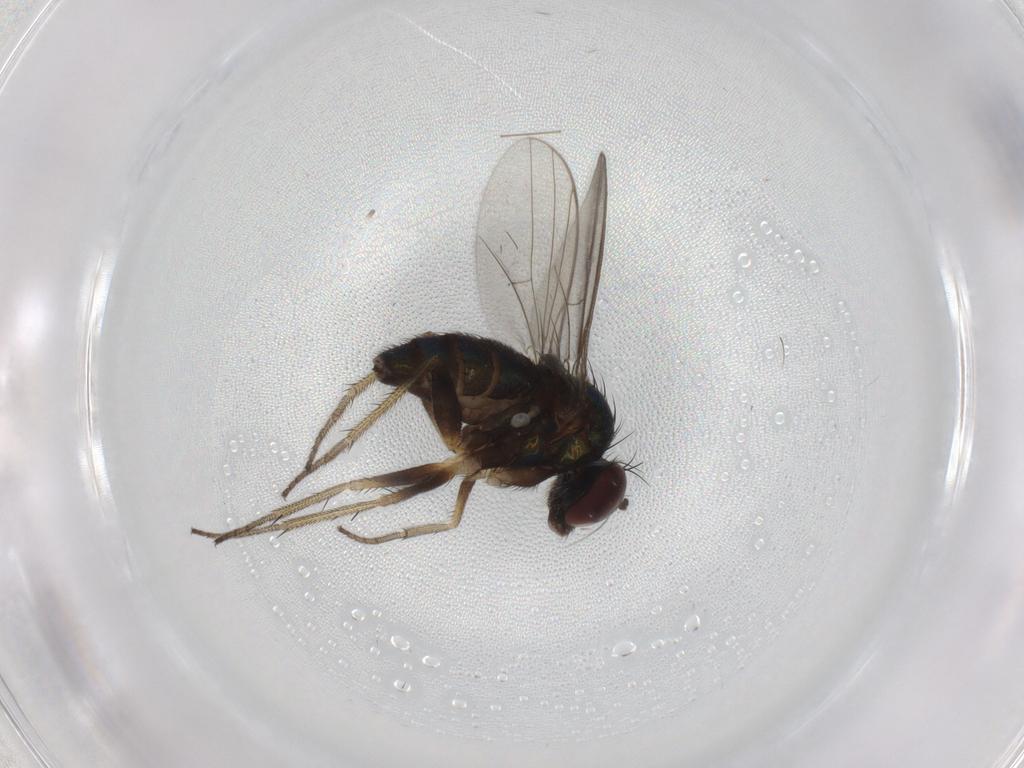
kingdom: Animalia
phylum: Arthropoda
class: Insecta
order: Diptera
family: Dolichopodidae
